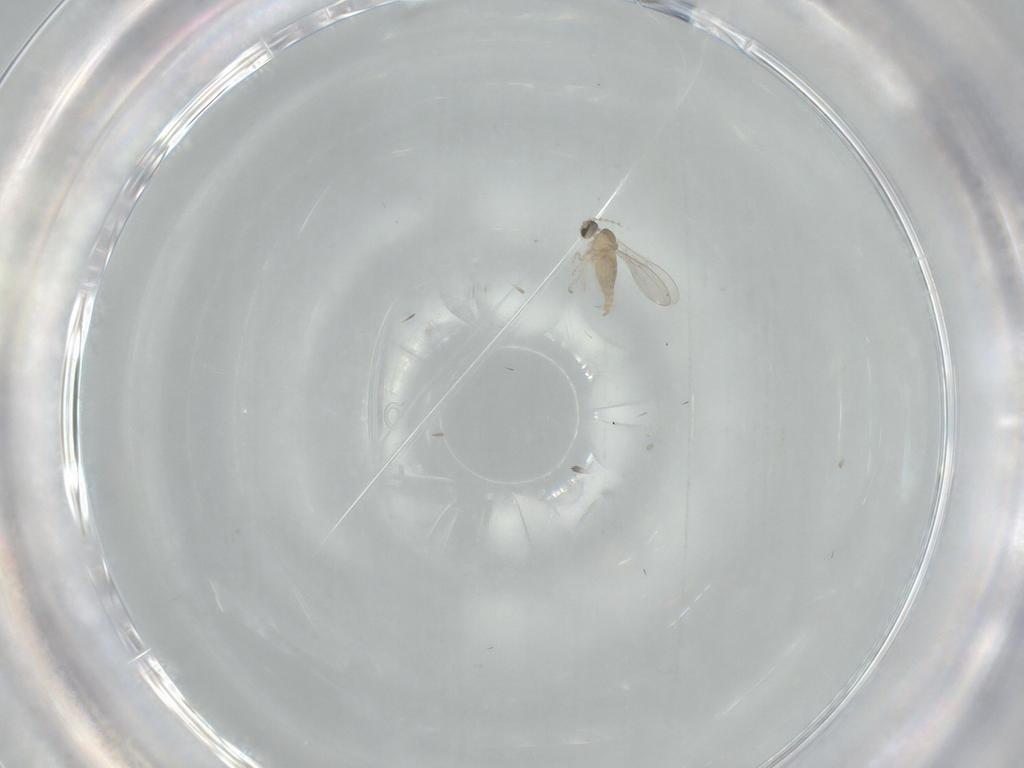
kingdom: Animalia
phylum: Arthropoda
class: Insecta
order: Diptera
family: Cecidomyiidae
